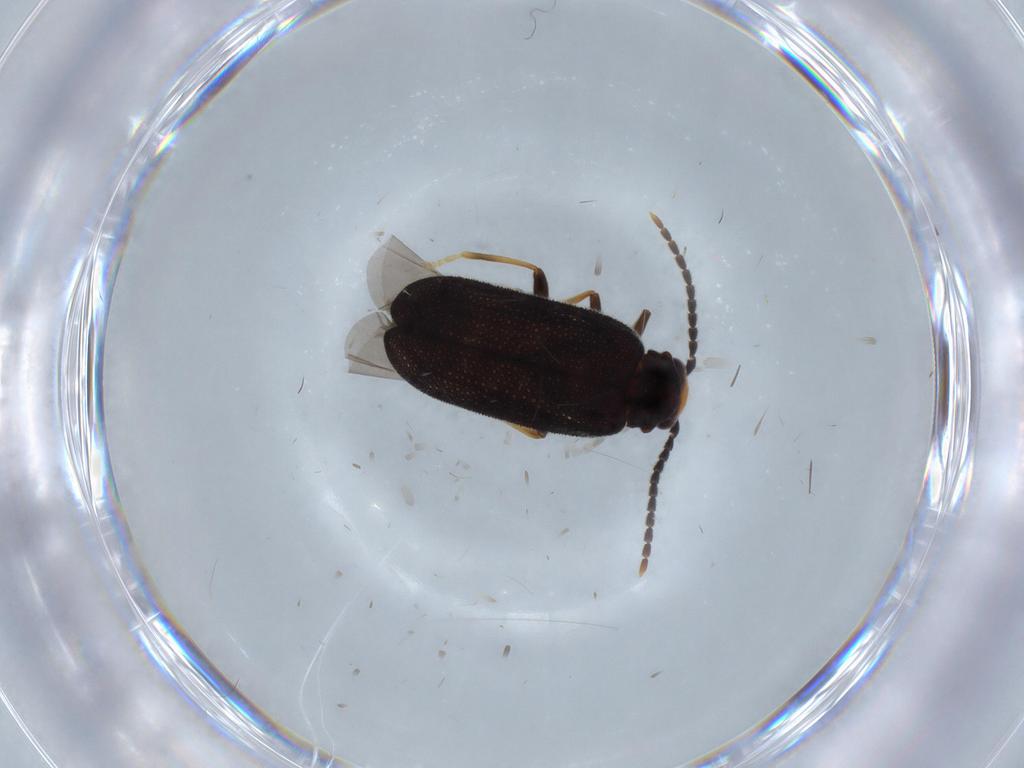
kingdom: Animalia
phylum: Arthropoda
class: Insecta
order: Coleoptera
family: Cantharidae
